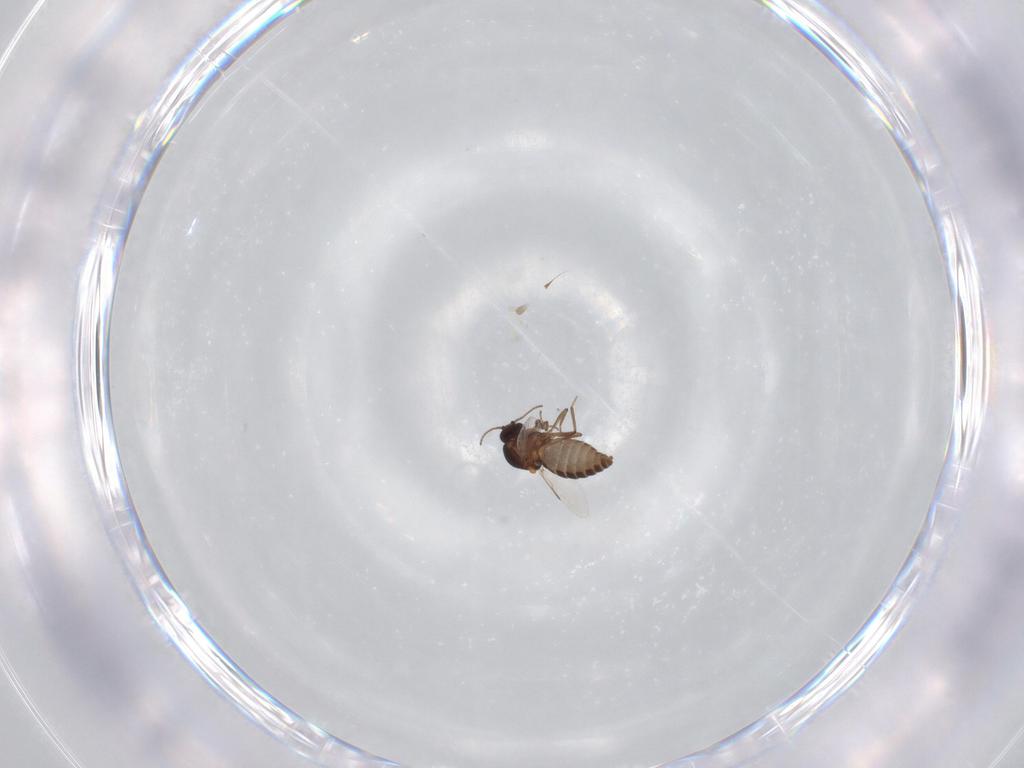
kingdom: Animalia
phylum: Arthropoda
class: Insecta
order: Diptera
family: Ceratopogonidae
